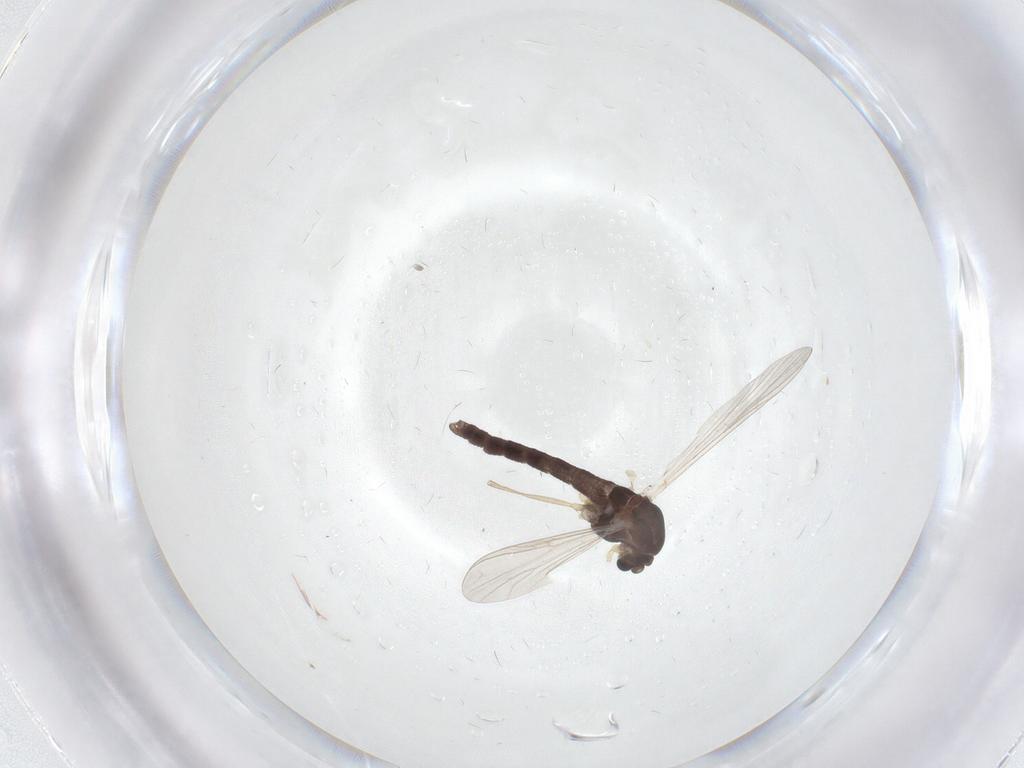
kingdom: Animalia
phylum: Arthropoda
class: Insecta
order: Diptera
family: Chironomidae
